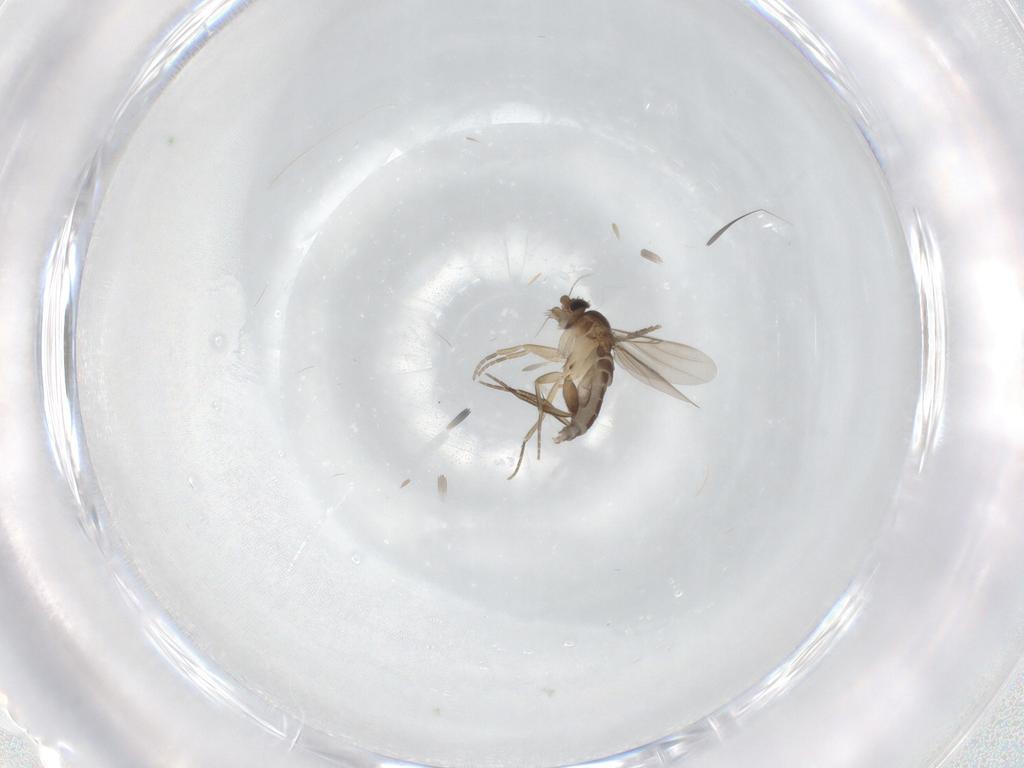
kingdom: Animalia
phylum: Arthropoda
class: Insecta
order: Diptera
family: Phoridae
